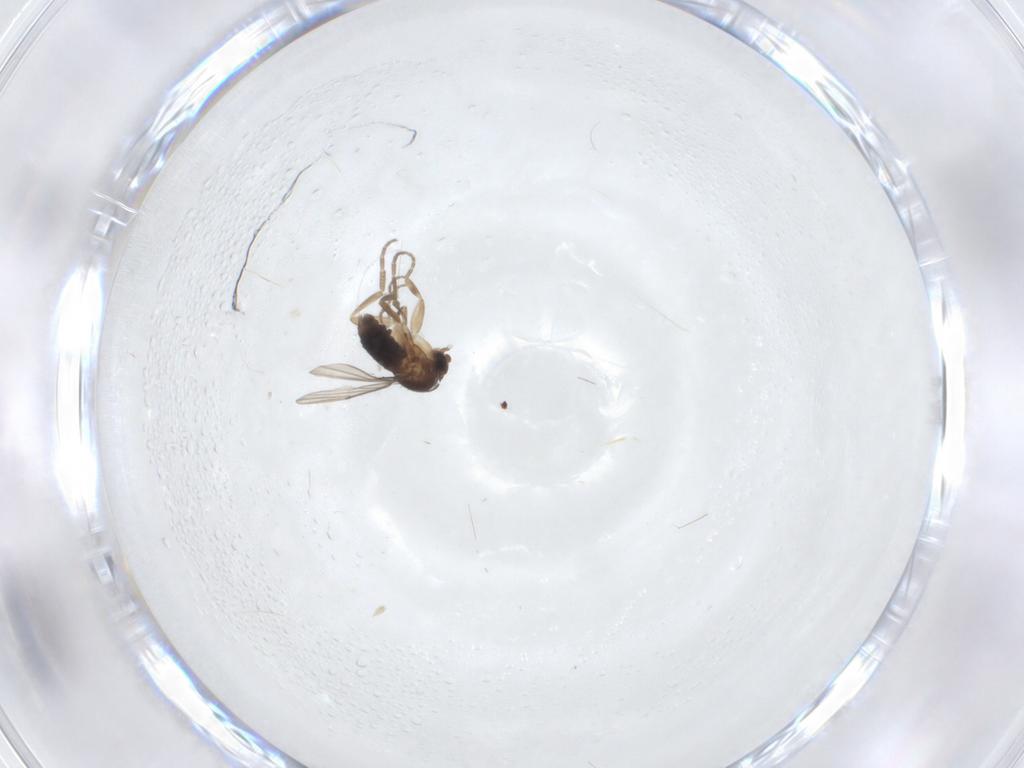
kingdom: Animalia
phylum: Arthropoda
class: Insecta
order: Diptera
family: Phoridae
